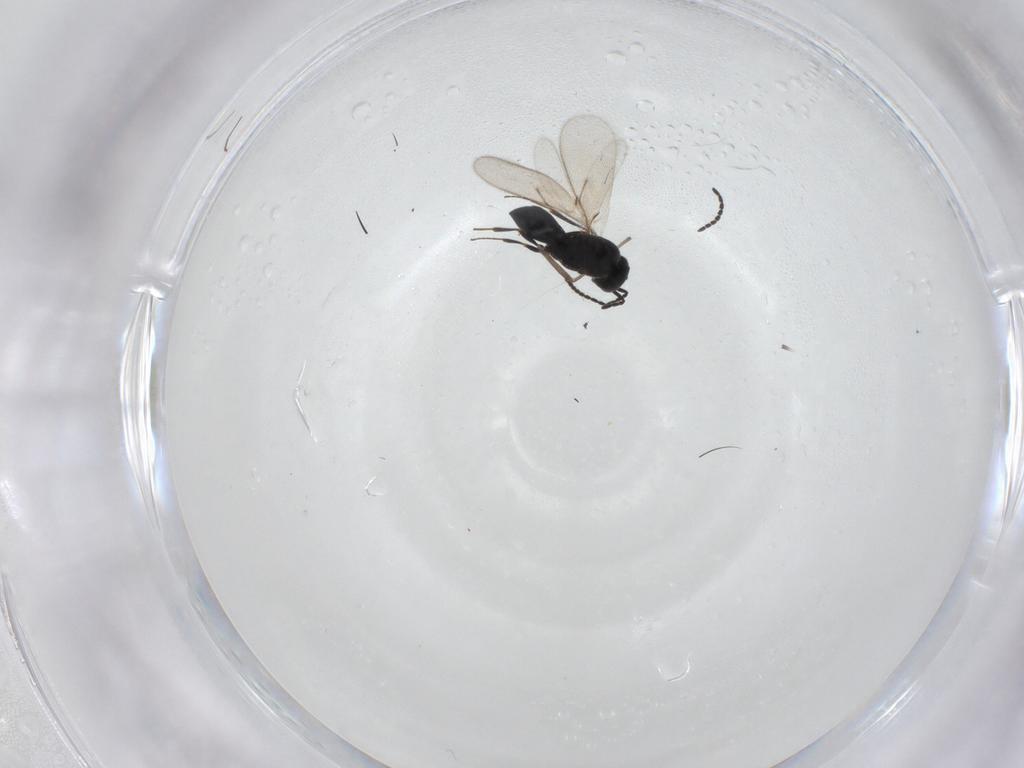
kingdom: Animalia
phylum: Arthropoda
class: Insecta
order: Hymenoptera
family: Scelionidae
